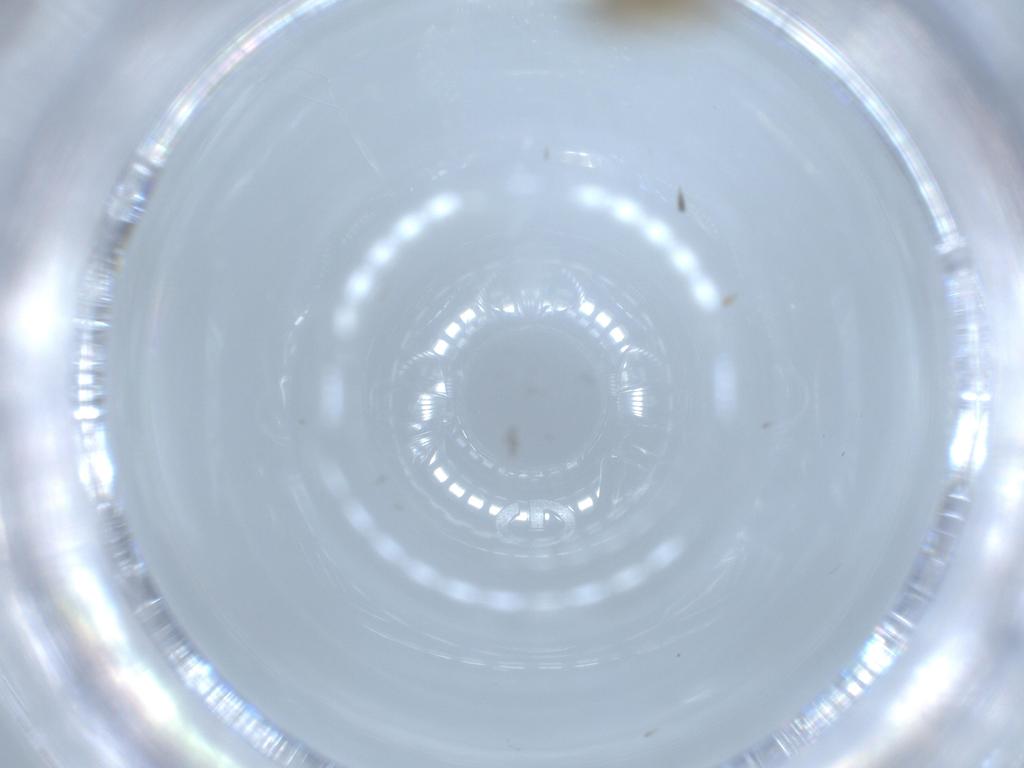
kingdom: Animalia
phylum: Arthropoda
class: Insecta
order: Diptera
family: Chironomidae
